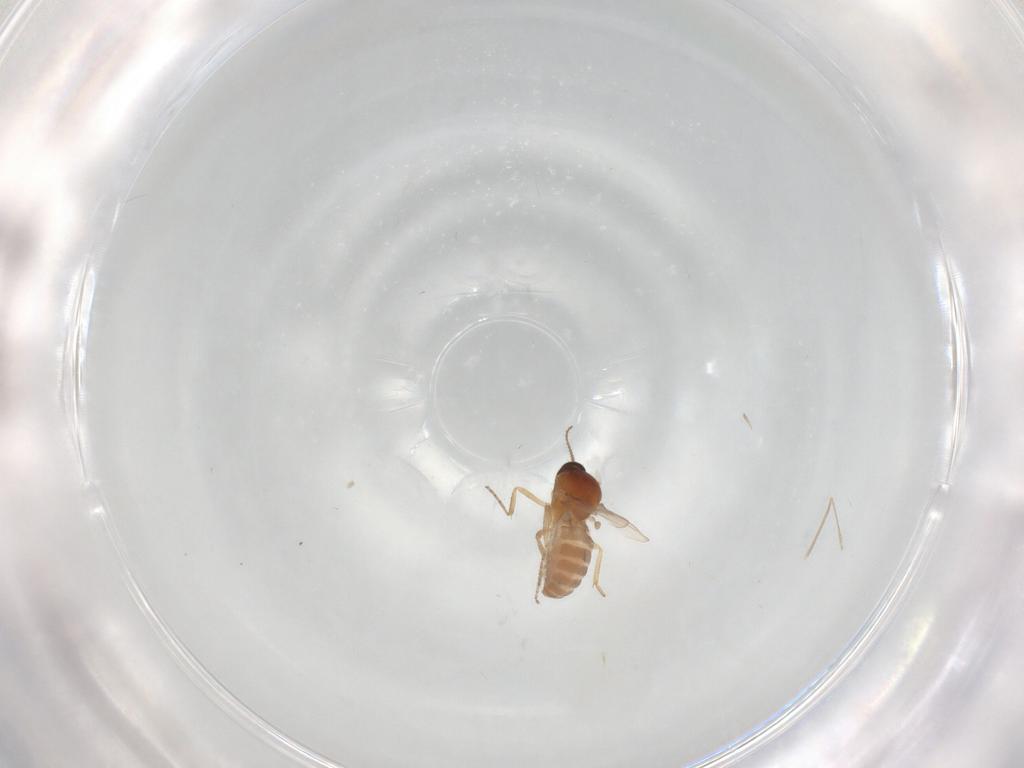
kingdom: Animalia
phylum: Arthropoda
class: Insecta
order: Diptera
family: Ceratopogonidae
